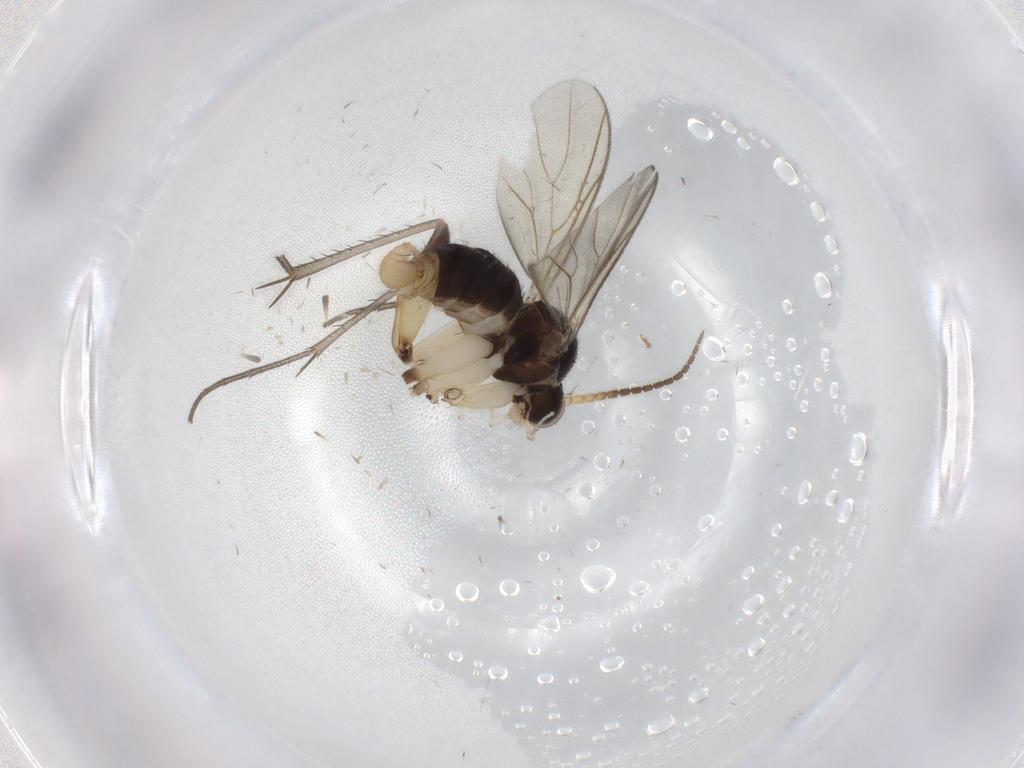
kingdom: Animalia
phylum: Arthropoda
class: Insecta
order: Diptera
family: Mycetophilidae
